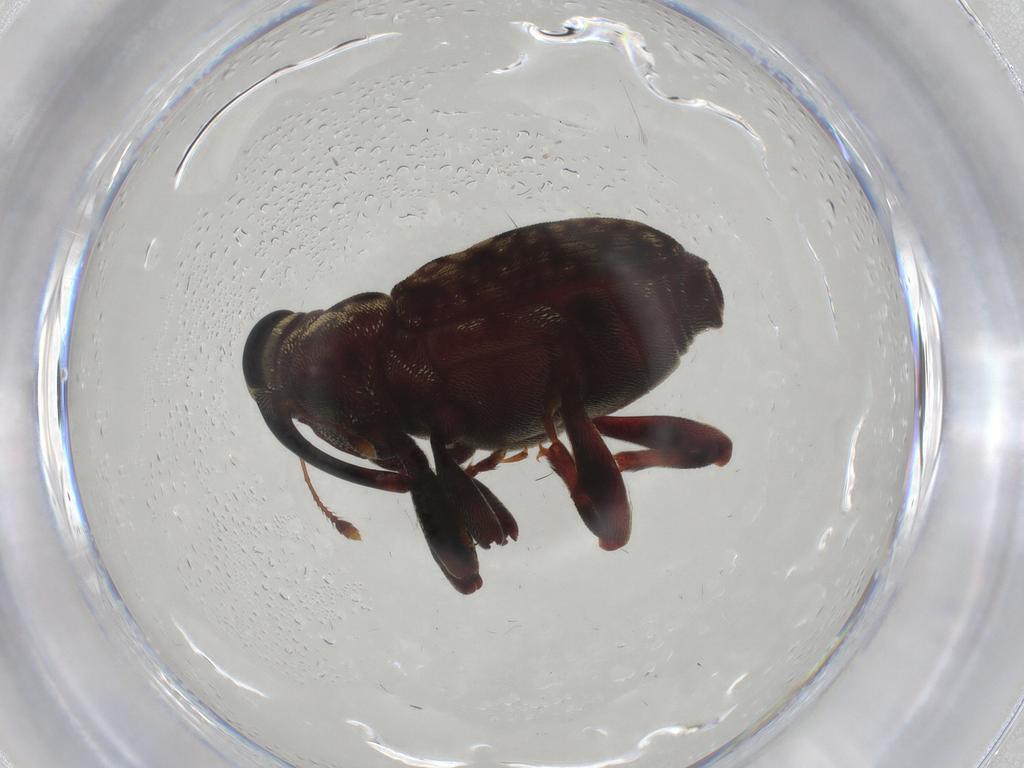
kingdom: Animalia
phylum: Arthropoda
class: Insecta
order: Coleoptera
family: Curculionidae
